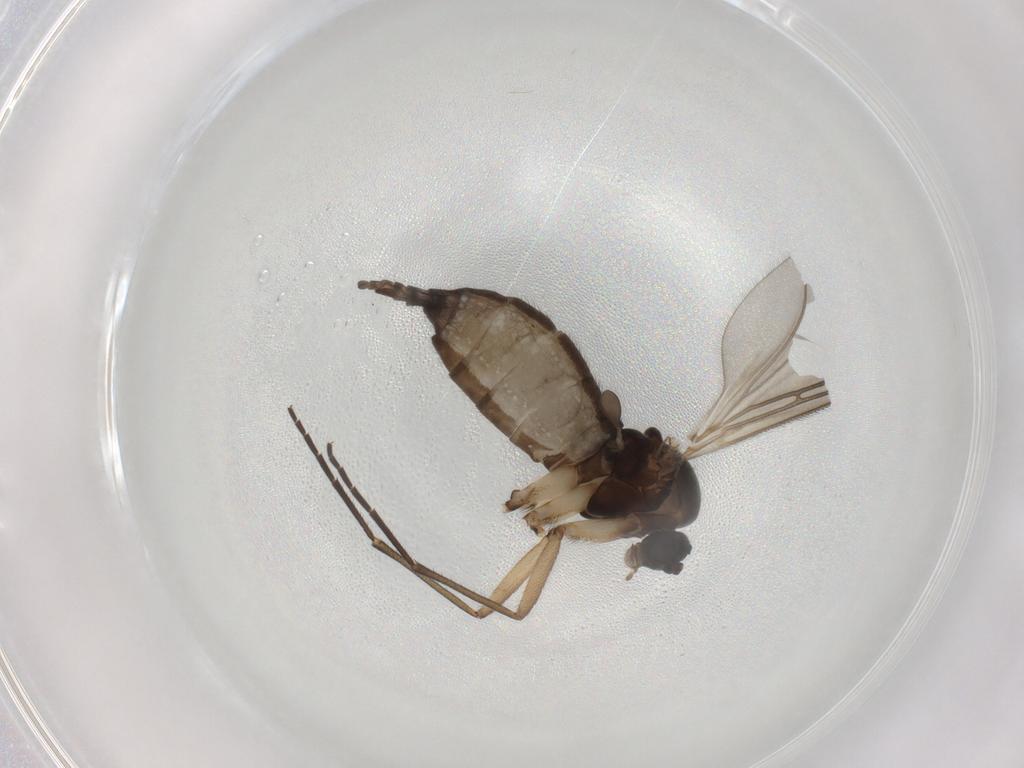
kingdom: Animalia
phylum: Arthropoda
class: Insecta
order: Diptera
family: Sciaridae
